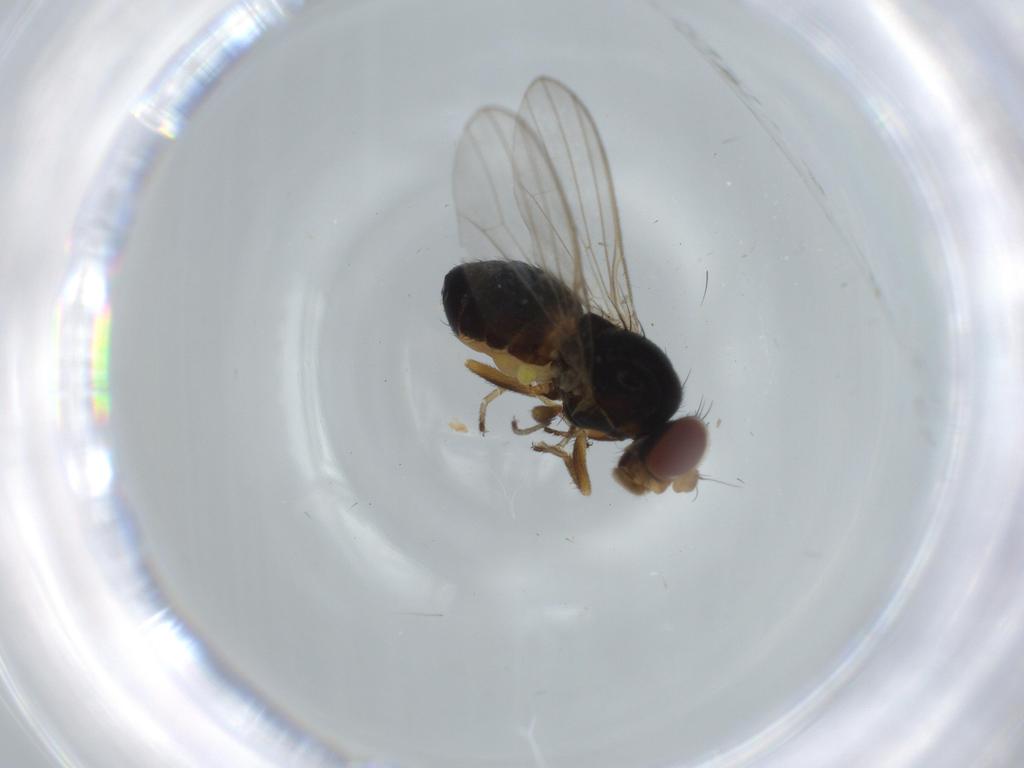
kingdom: Animalia
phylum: Arthropoda
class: Insecta
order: Diptera
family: Sphaeroceridae
